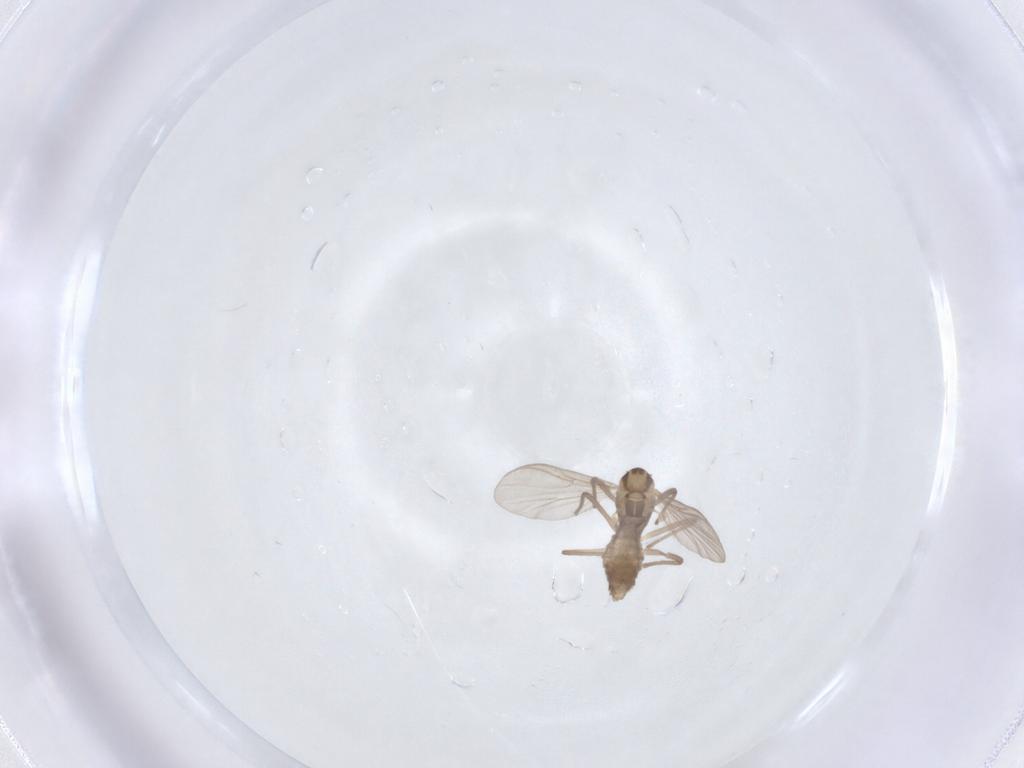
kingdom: Animalia
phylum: Arthropoda
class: Insecta
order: Diptera
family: Chironomidae
